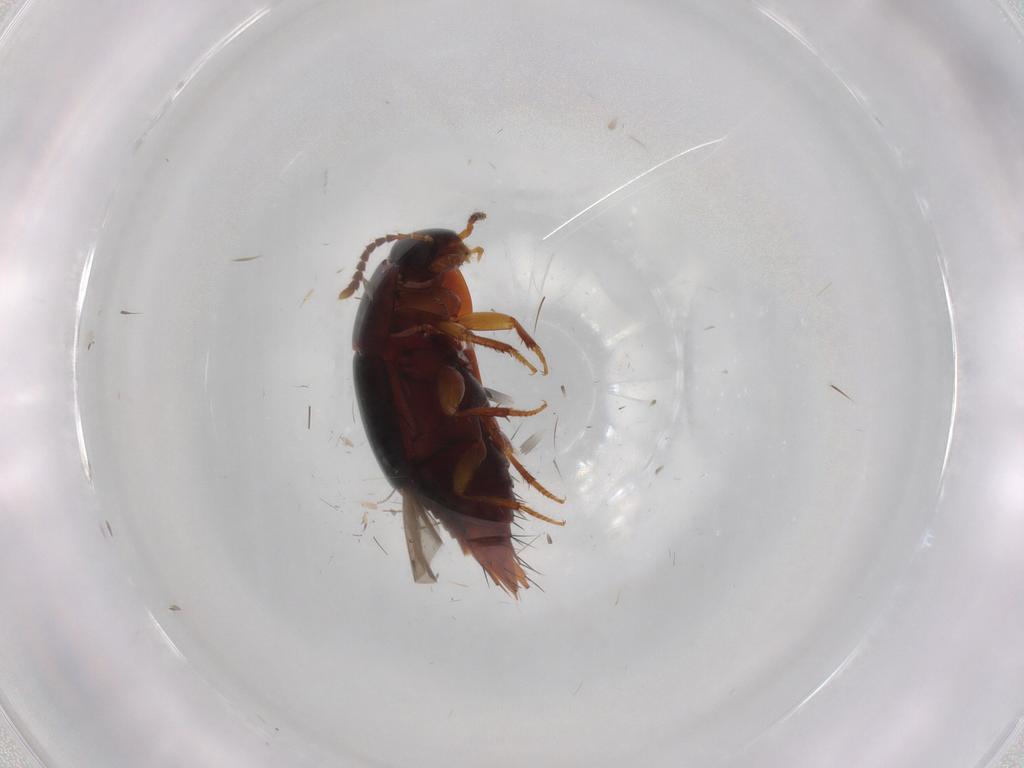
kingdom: Animalia
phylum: Arthropoda
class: Insecta
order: Coleoptera
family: Staphylinidae
